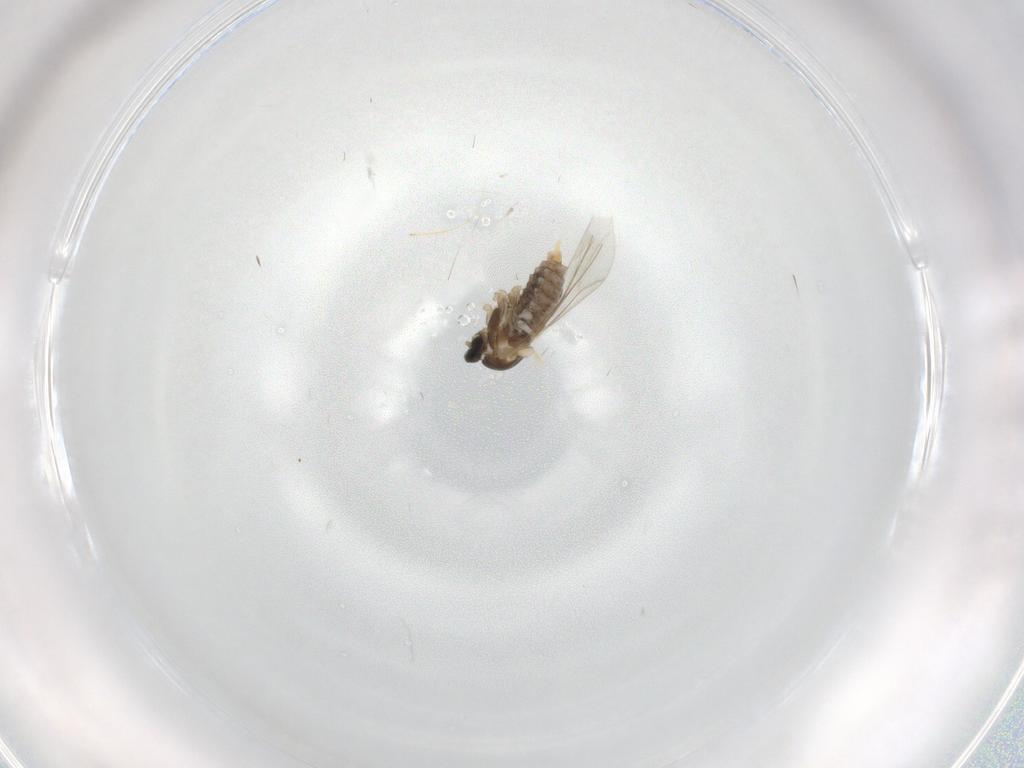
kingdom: Animalia
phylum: Arthropoda
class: Insecta
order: Diptera
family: Cecidomyiidae
